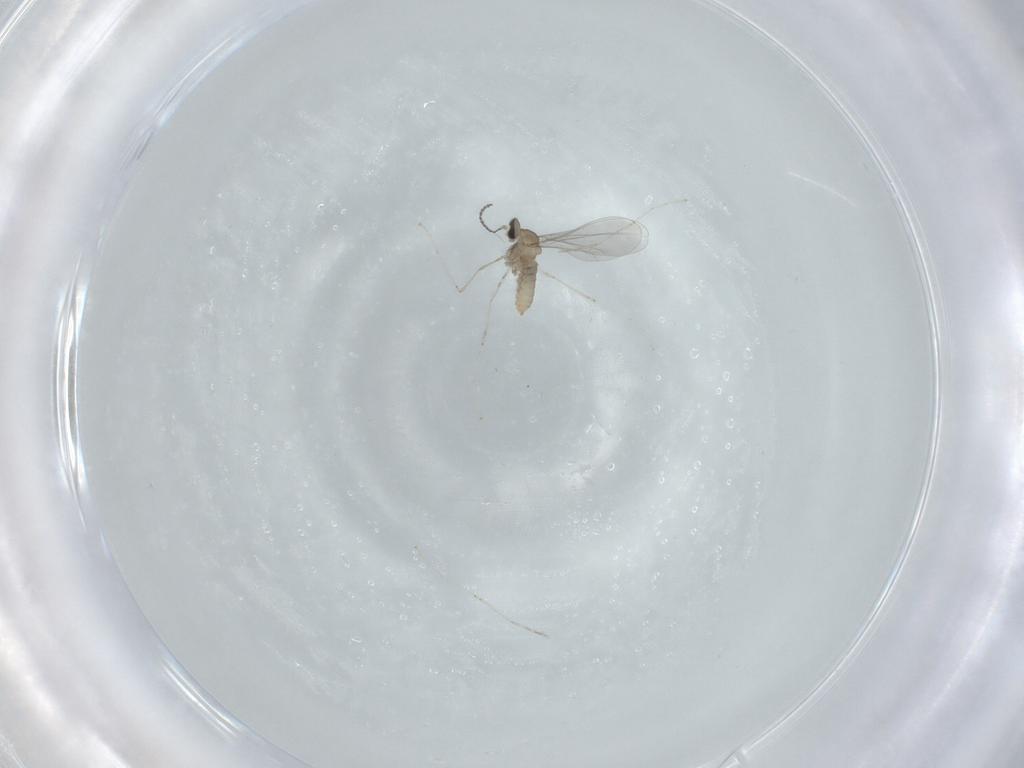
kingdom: Animalia
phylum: Arthropoda
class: Insecta
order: Diptera
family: Cecidomyiidae
